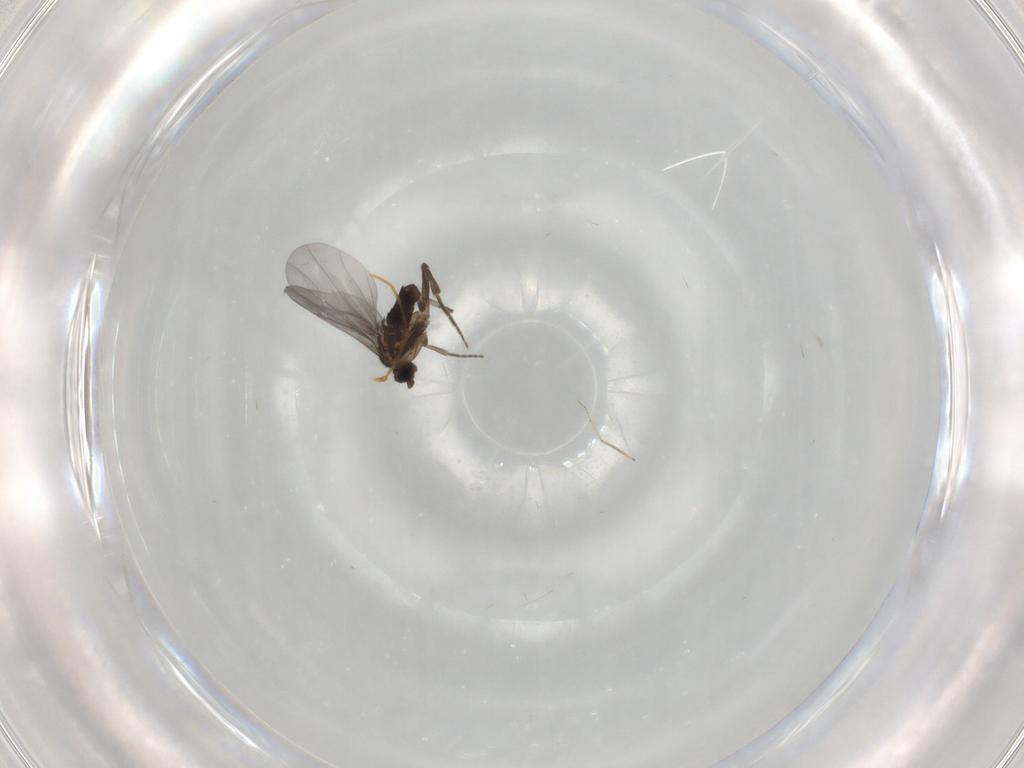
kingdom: Animalia
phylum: Arthropoda
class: Insecta
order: Diptera
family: Phoridae
